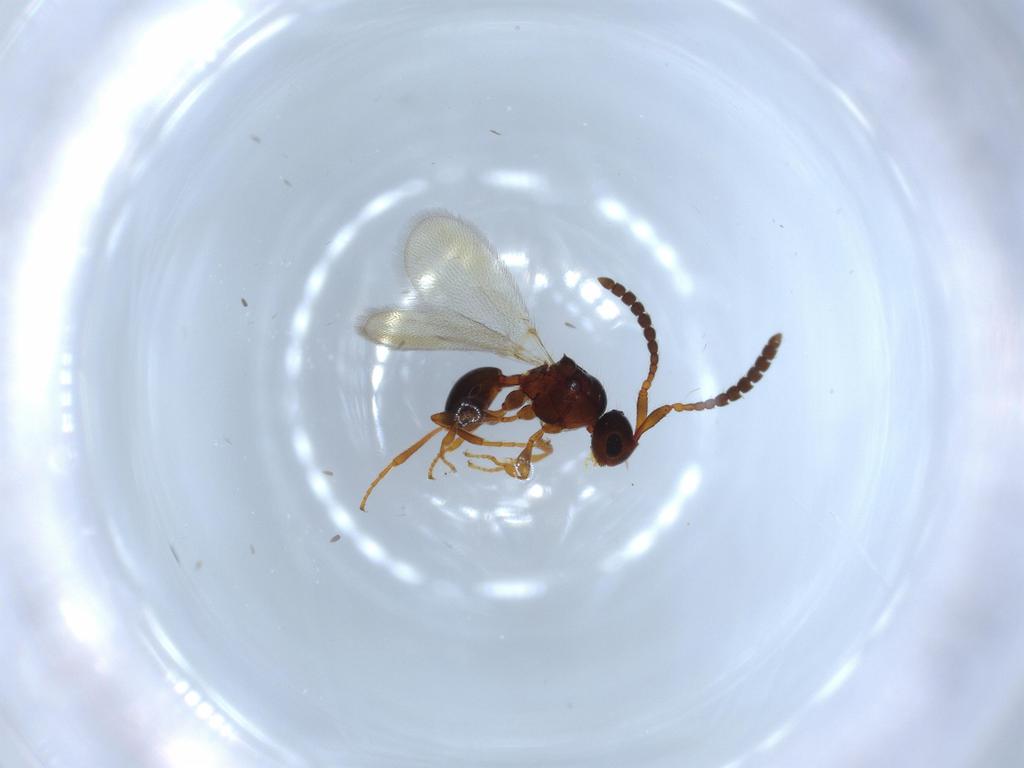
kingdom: Animalia
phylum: Arthropoda
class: Insecta
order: Hymenoptera
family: Diapriidae
